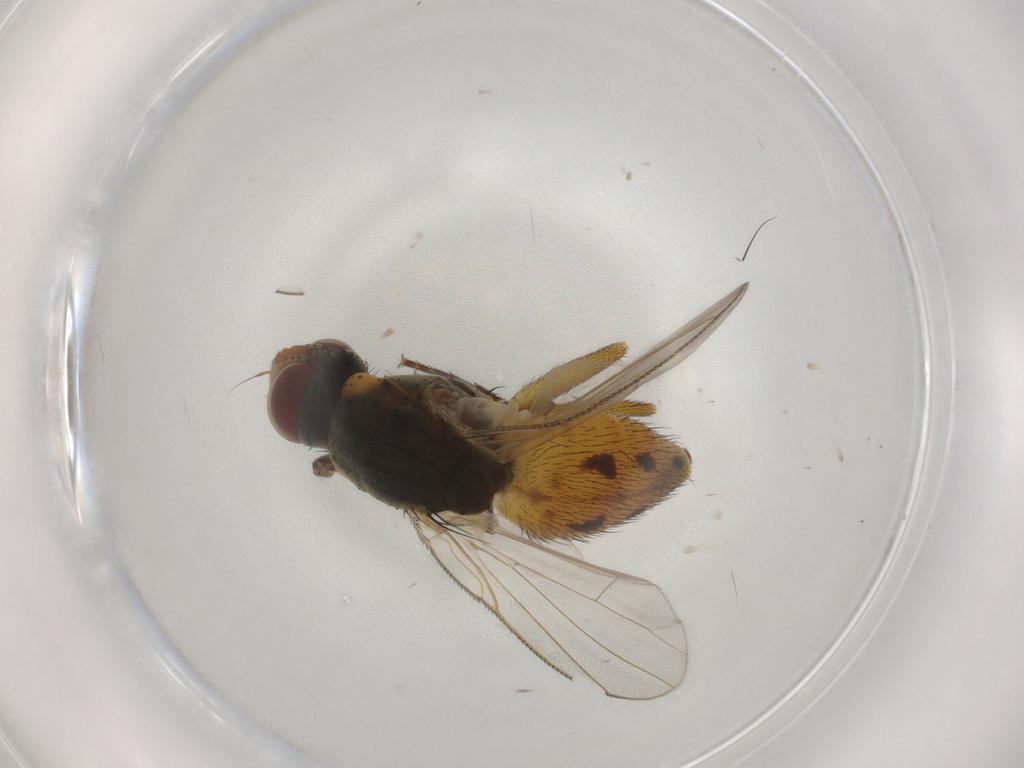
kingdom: Animalia
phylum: Arthropoda
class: Insecta
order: Diptera
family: Muscidae
